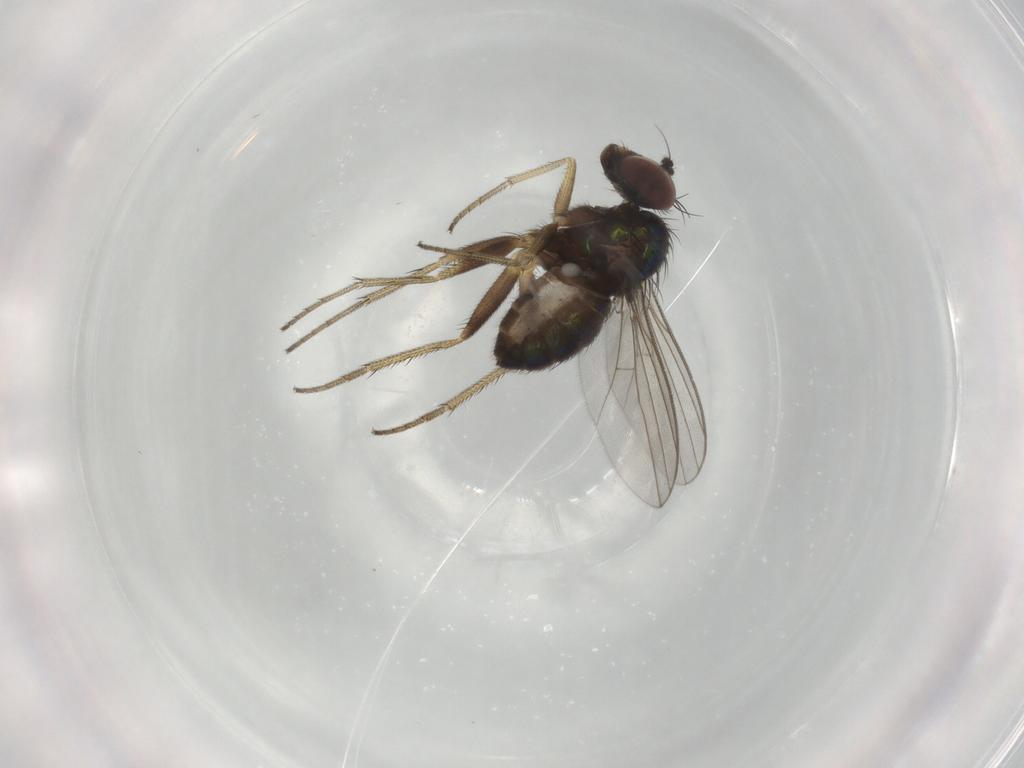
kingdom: Animalia
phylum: Arthropoda
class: Insecta
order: Diptera
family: Dolichopodidae
